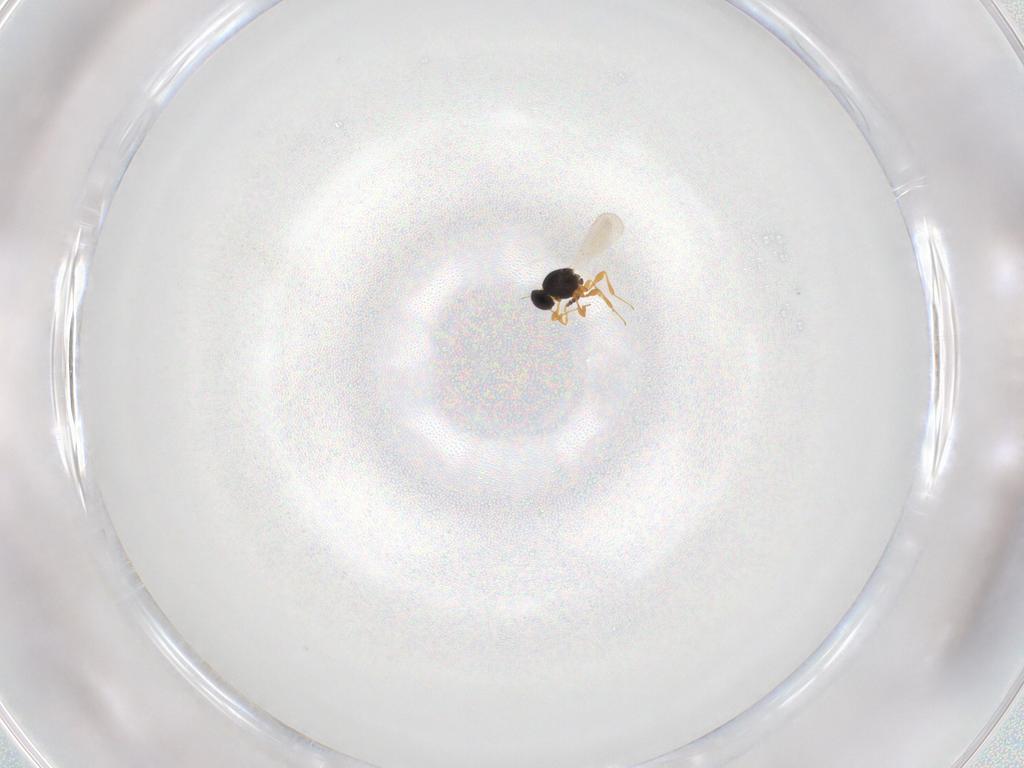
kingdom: Animalia
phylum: Arthropoda
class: Insecta
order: Hymenoptera
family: Platygastridae
